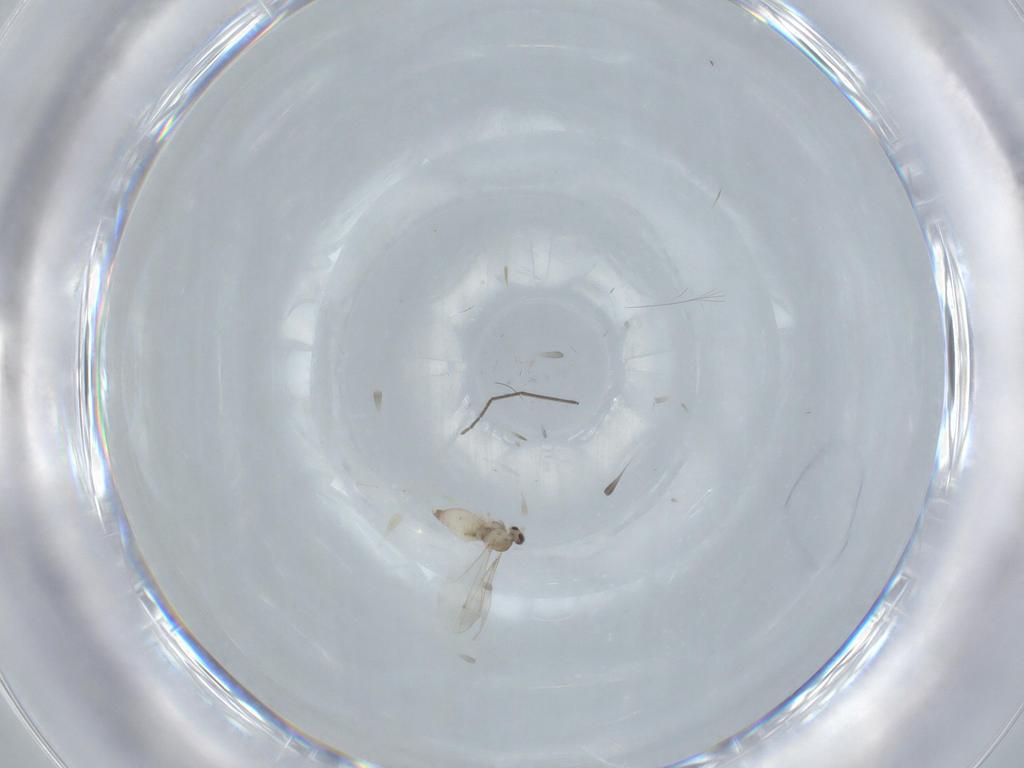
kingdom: Animalia
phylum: Arthropoda
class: Insecta
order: Diptera
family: Cecidomyiidae
